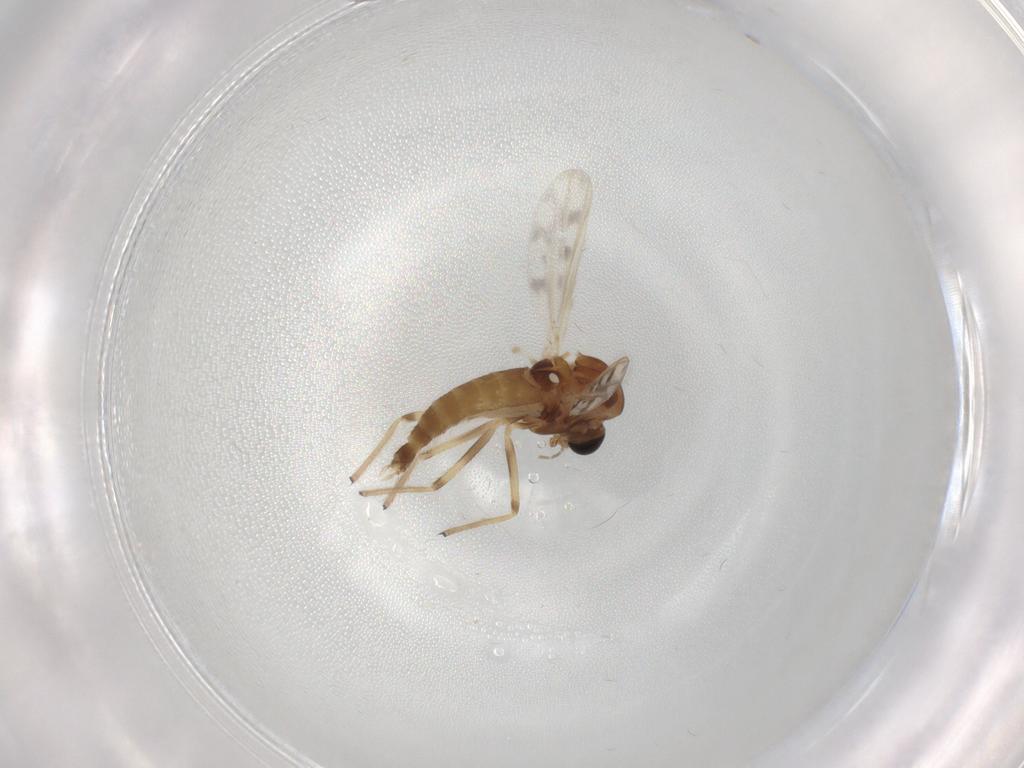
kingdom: Animalia
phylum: Arthropoda
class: Insecta
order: Diptera
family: Chironomidae
